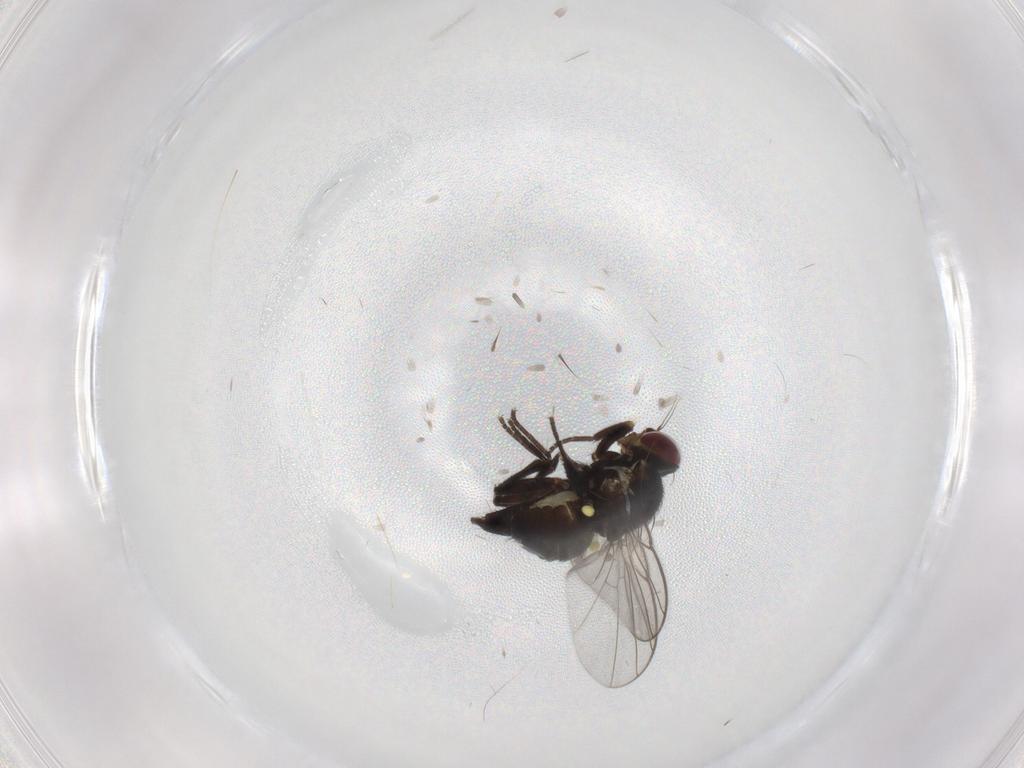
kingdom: Animalia
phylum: Arthropoda
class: Insecta
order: Diptera
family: Agromyzidae
